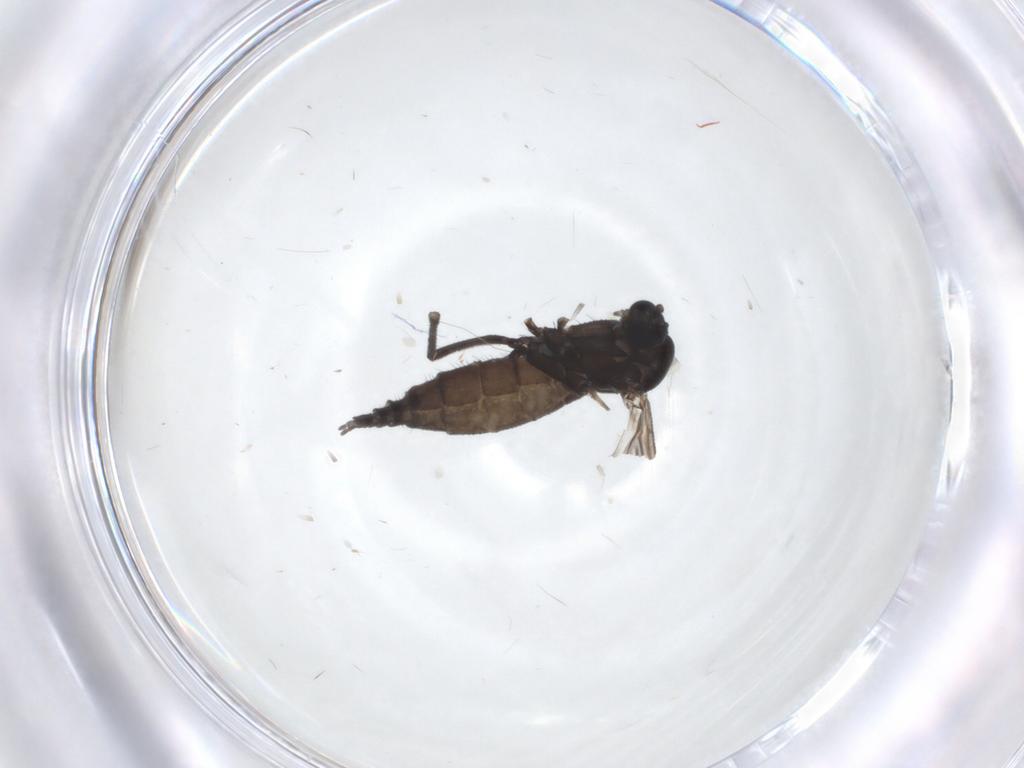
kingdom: Animalia
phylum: Arthropoda
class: Insecta
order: Diptera
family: Sciaridae
